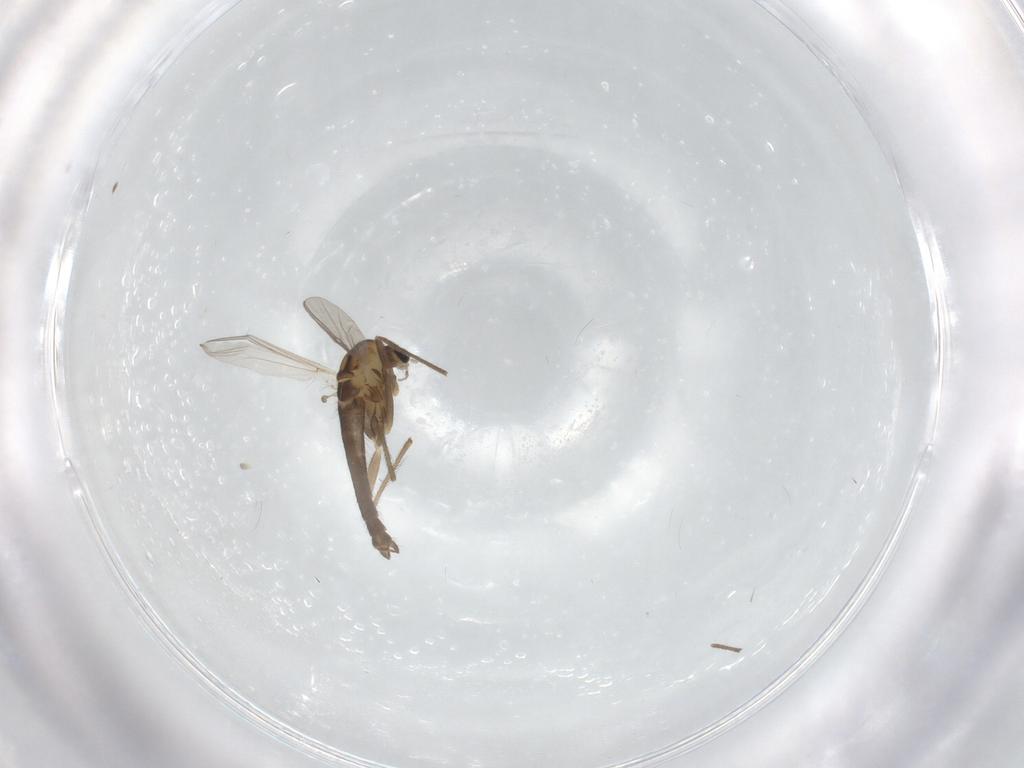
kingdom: Animalia
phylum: Arthropoda
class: Insecta
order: Diptera
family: Chironomidae
